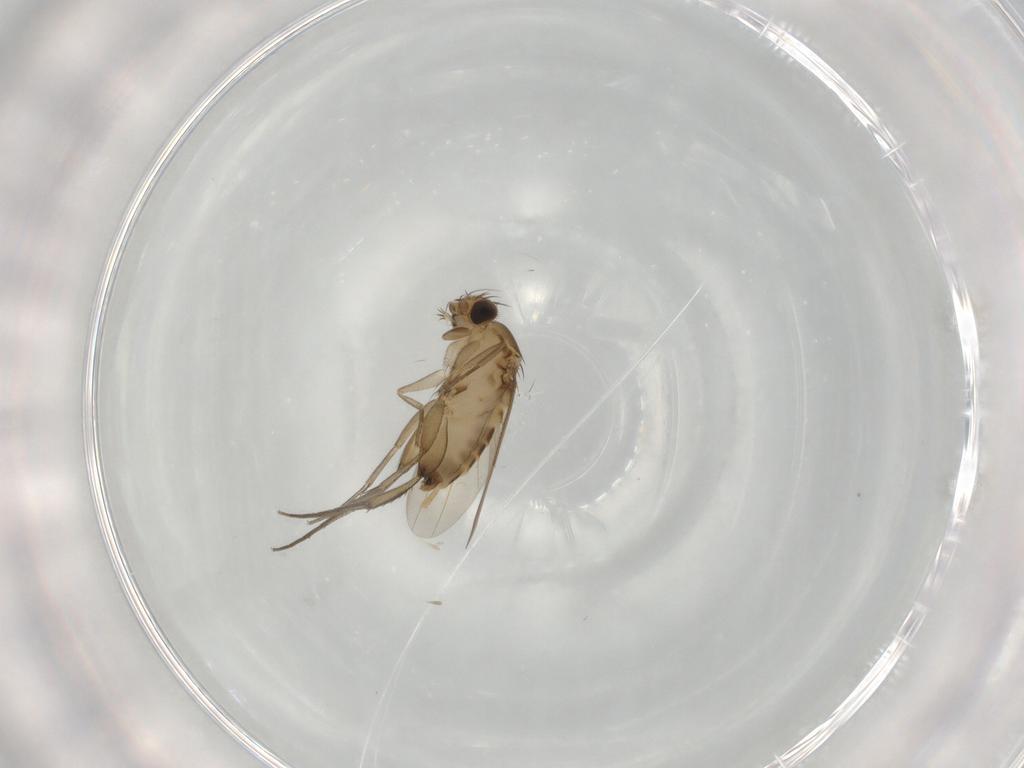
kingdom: Animalia
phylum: Arthropoda
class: Insecta
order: Diptera
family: Phoridae
